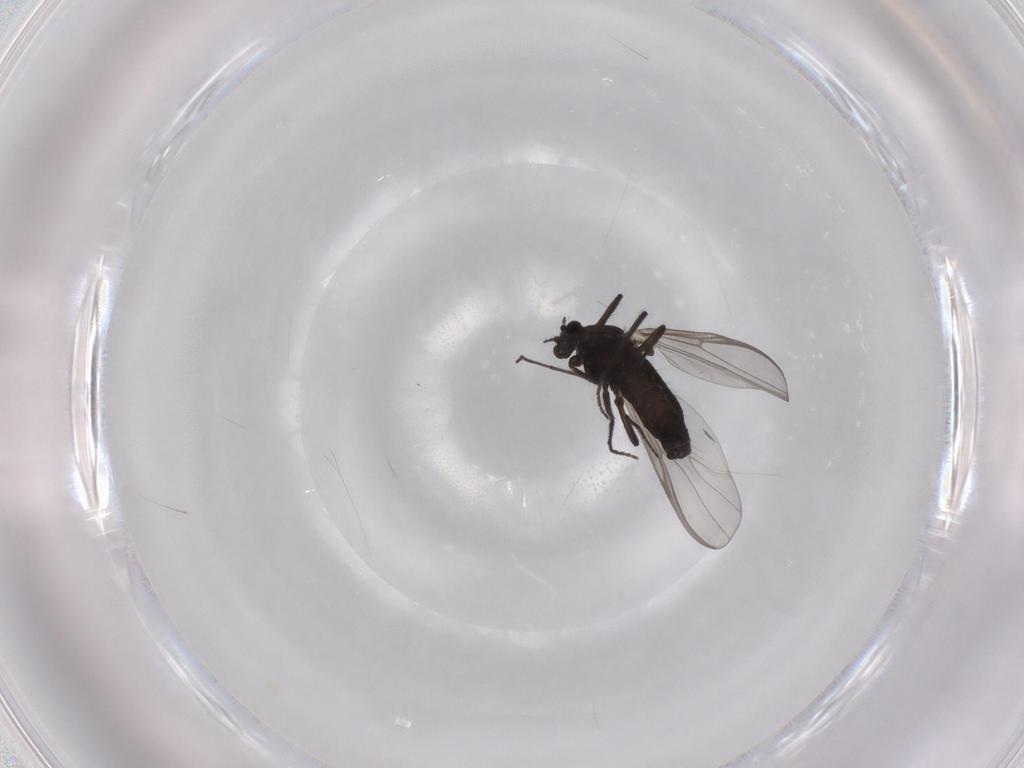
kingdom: Animalia
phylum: Arthropoda
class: Insecta
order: Diptera
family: Chironomidae
